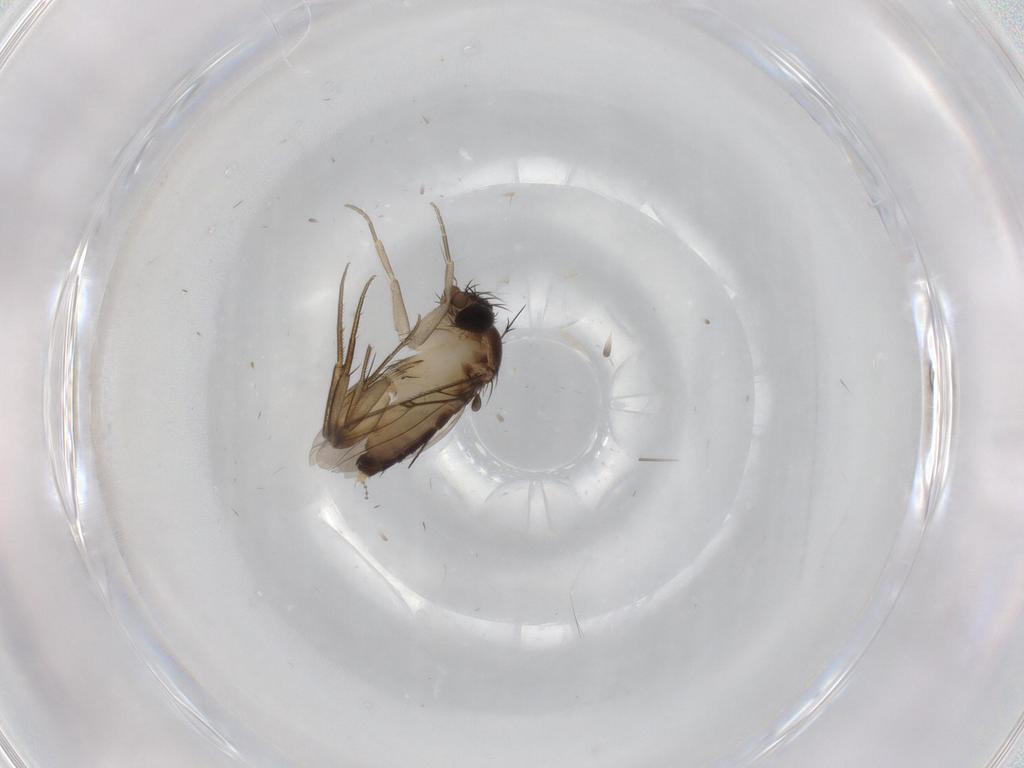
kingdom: Animalia
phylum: Arthropoda
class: Insecta
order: Diptera
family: Phoridae
